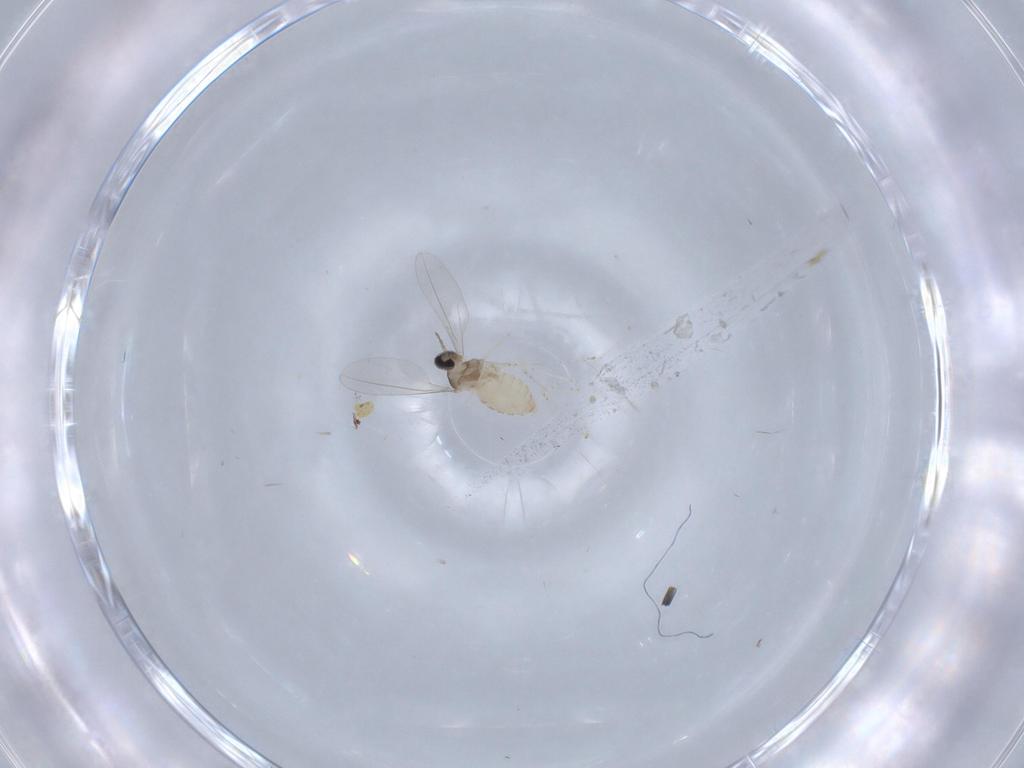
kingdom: Animalia
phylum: Arthropoda
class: Insecta
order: Diptera
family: Cecidomyiidae
